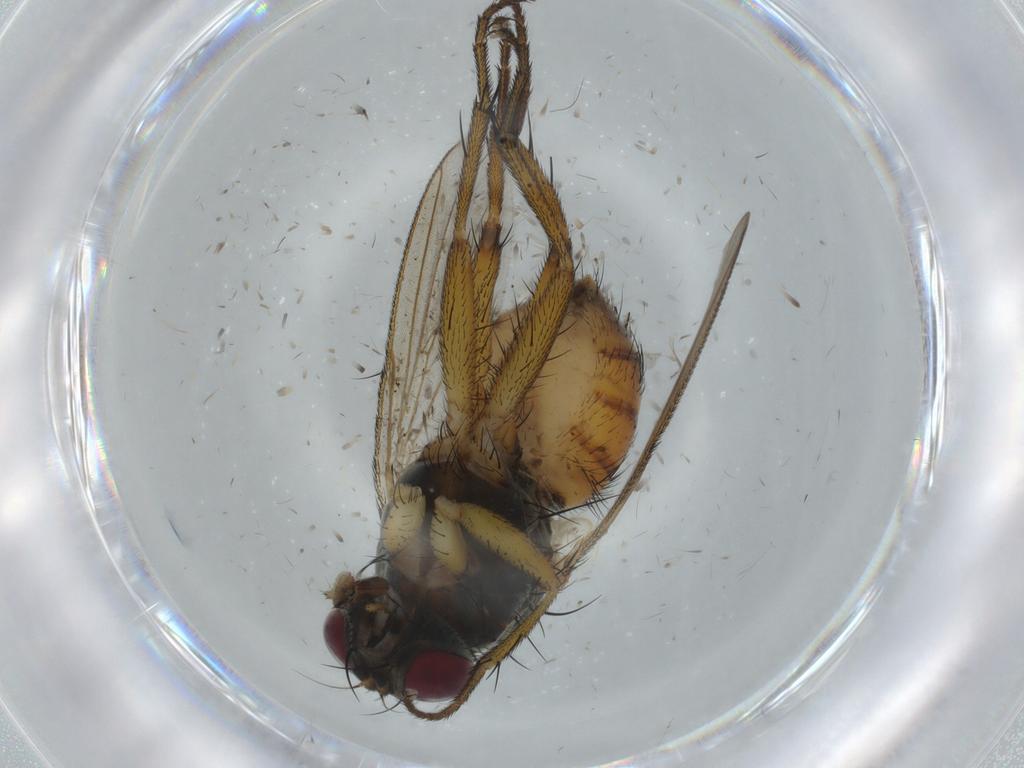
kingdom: Animalia
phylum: Arthropoda
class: Insecta
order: Diptera
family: Muscidae
